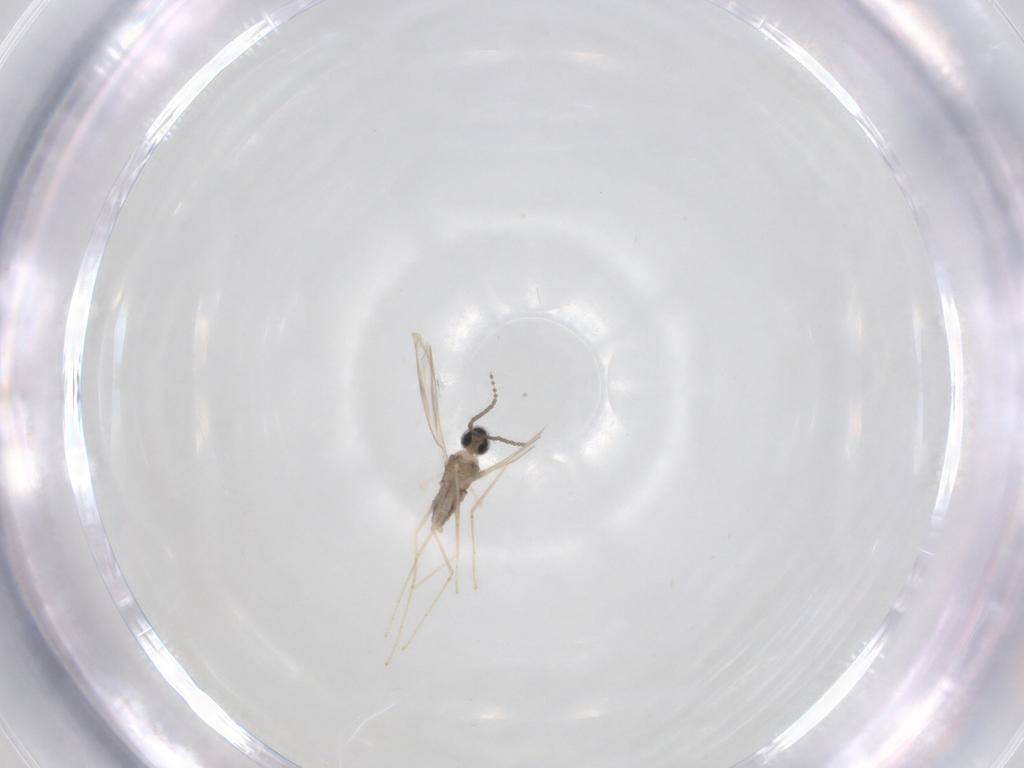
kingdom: Animalia
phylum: Arthropoda
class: Insecta
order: Diptera
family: Cecidomyiidae
